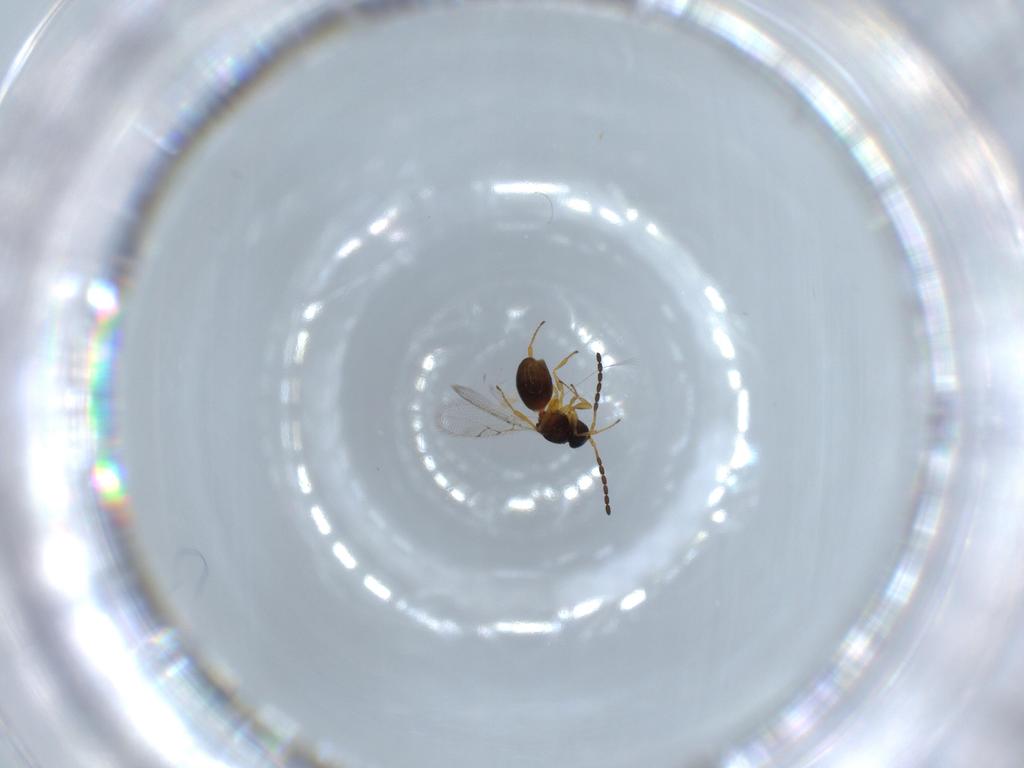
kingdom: Animalia
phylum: Arthropoda
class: Insecta
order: Hymenoptera
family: Figitidae
